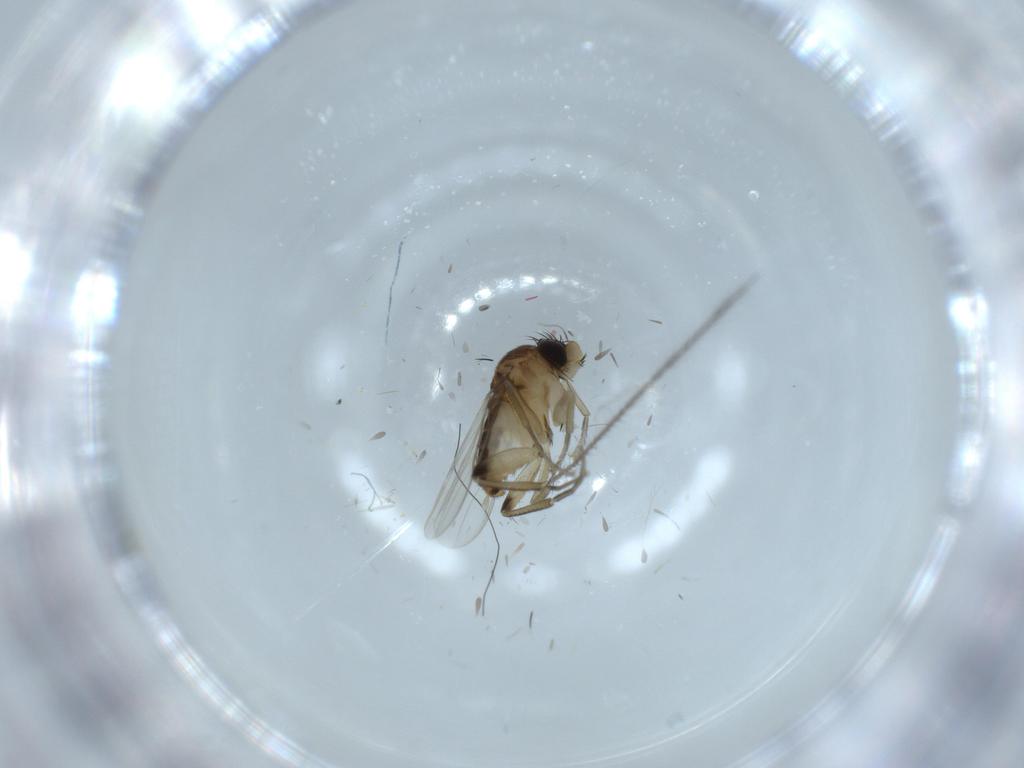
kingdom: Animalia
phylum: Arthropoda
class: Insecta
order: Diptera
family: Phoridae
